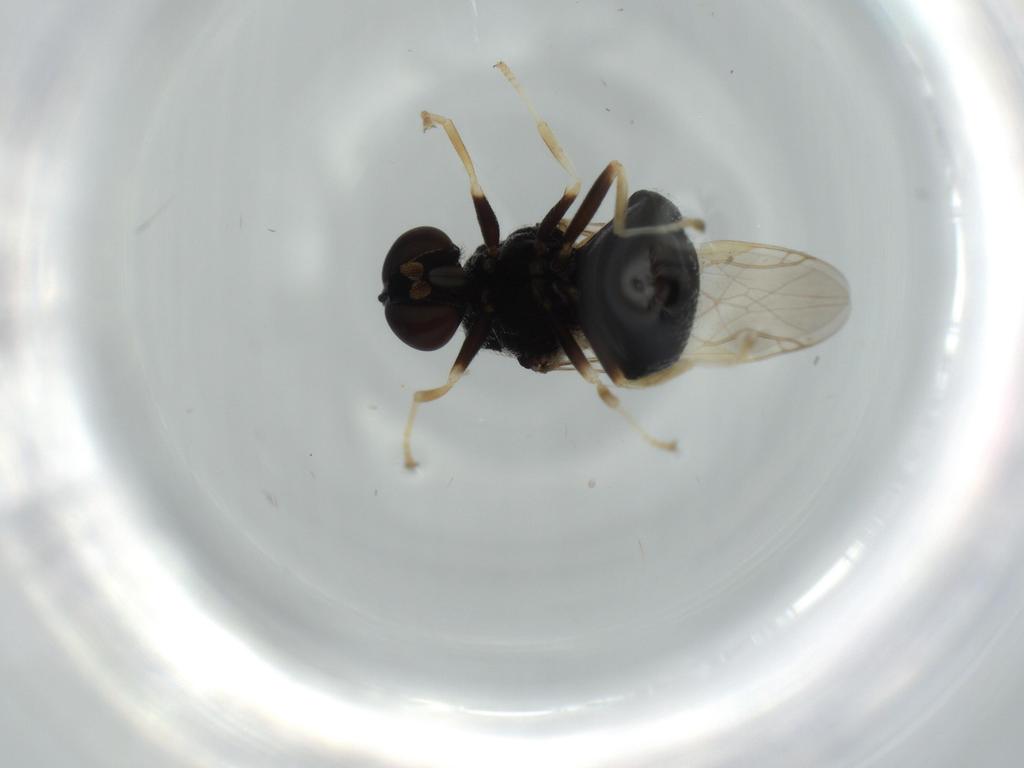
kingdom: Animalia
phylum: Arthropoda
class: Insecta
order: Diptera
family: Stratiomyidae
